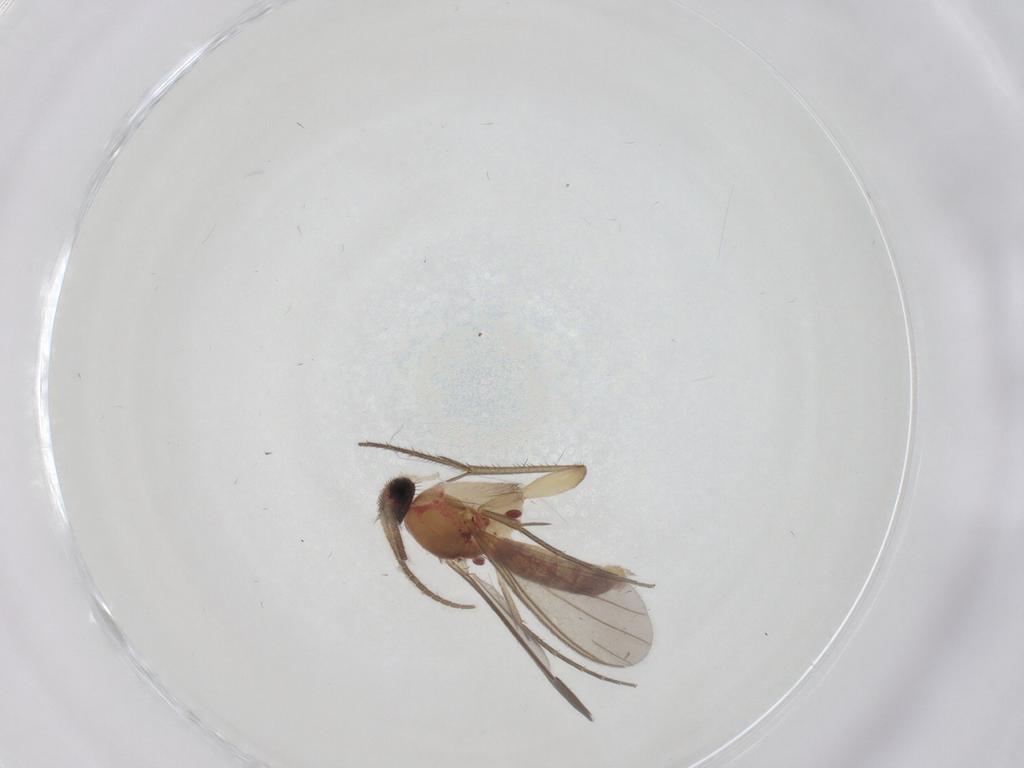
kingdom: Animalia
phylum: Arthropoda
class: Insecta
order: Diptera
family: Mycetophilidae
